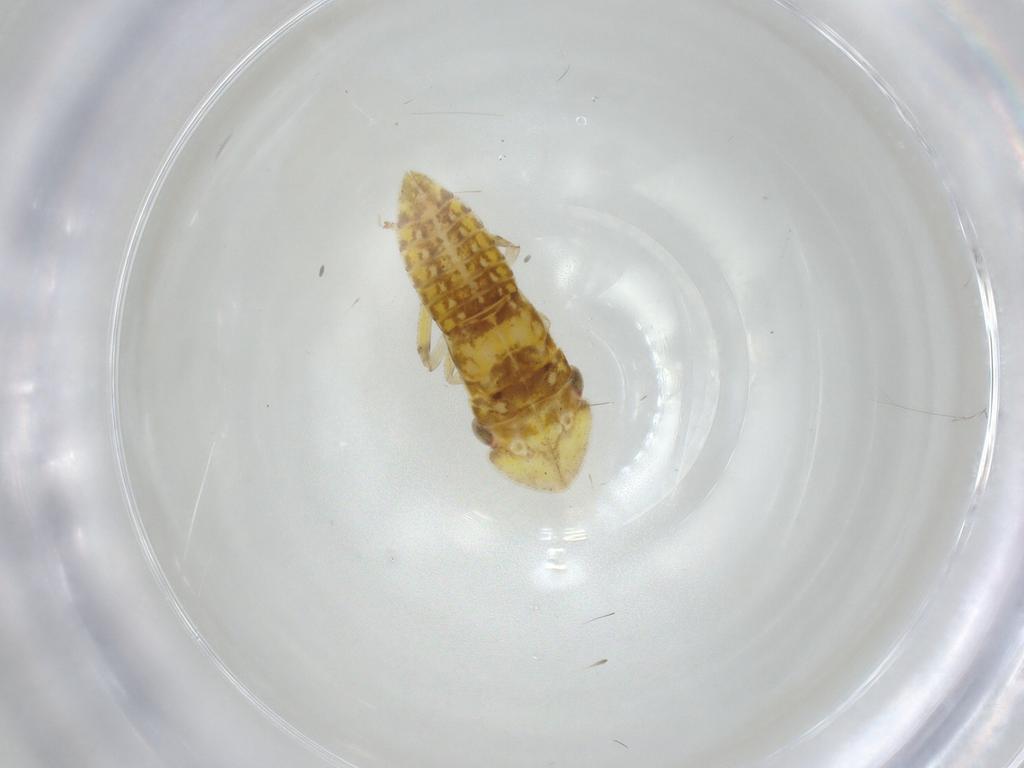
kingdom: Animalia
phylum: Arthropoda
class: Insecta
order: Hemiptera
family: Cicadellidae
